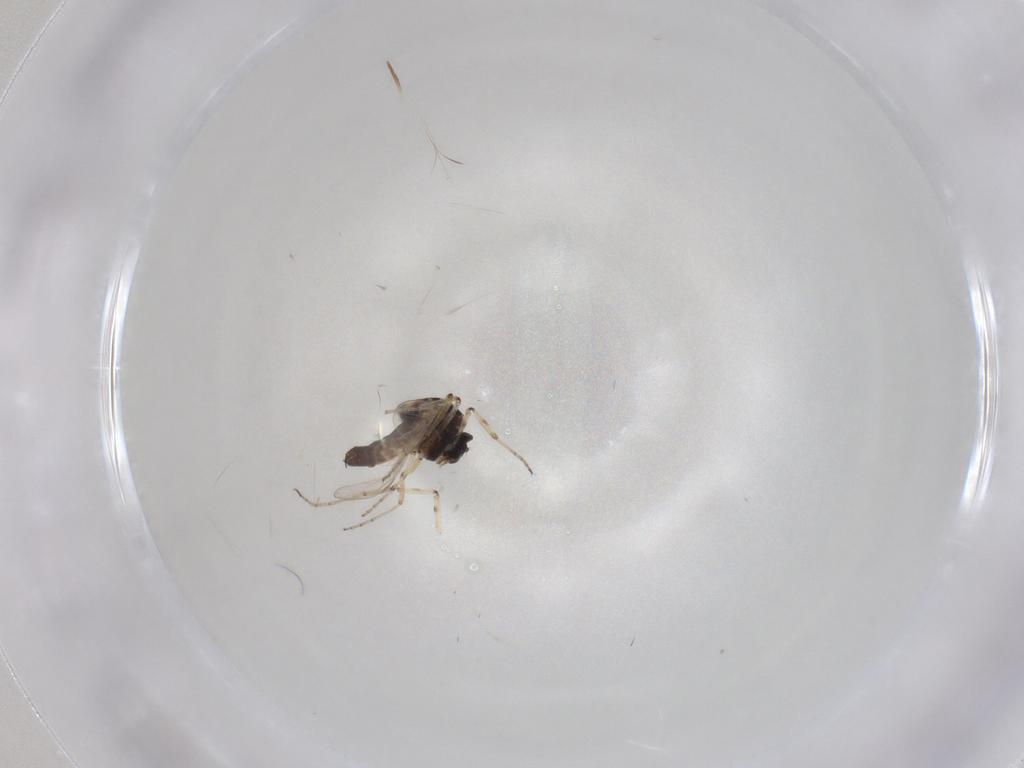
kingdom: Animalia
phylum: Arthropoda
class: Insecta
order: Diptera
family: Ceratopogonidae
